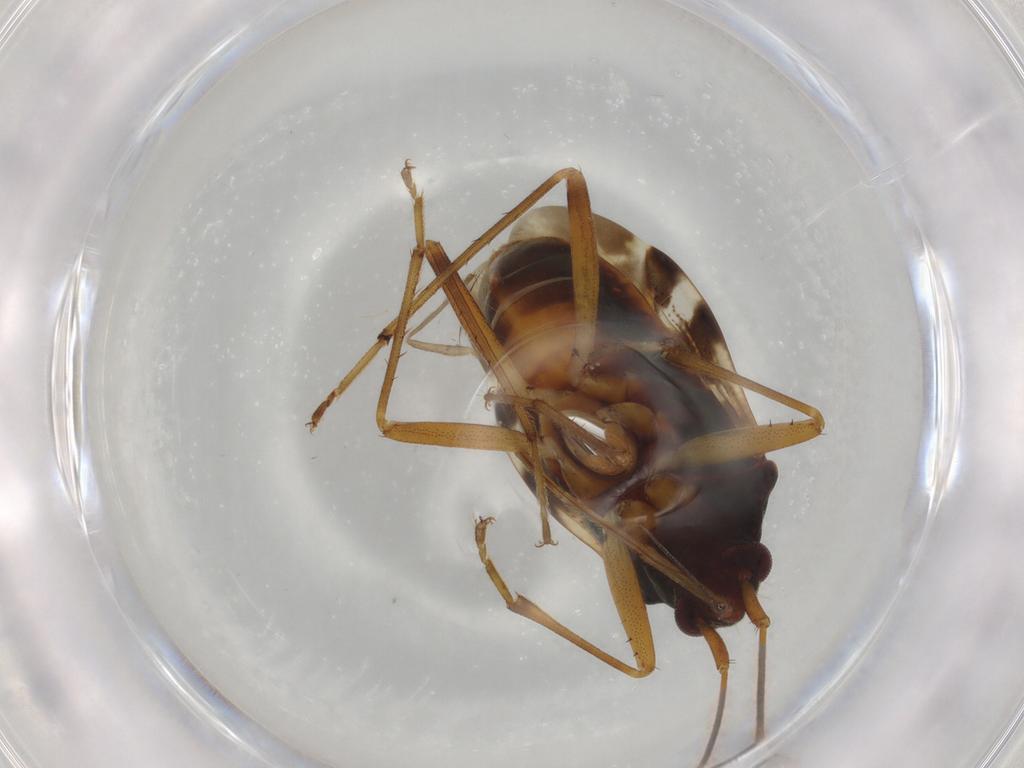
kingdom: Animalia
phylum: Arthropoda
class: Insecta
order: Hemiptera
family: Rhyparochromidae
